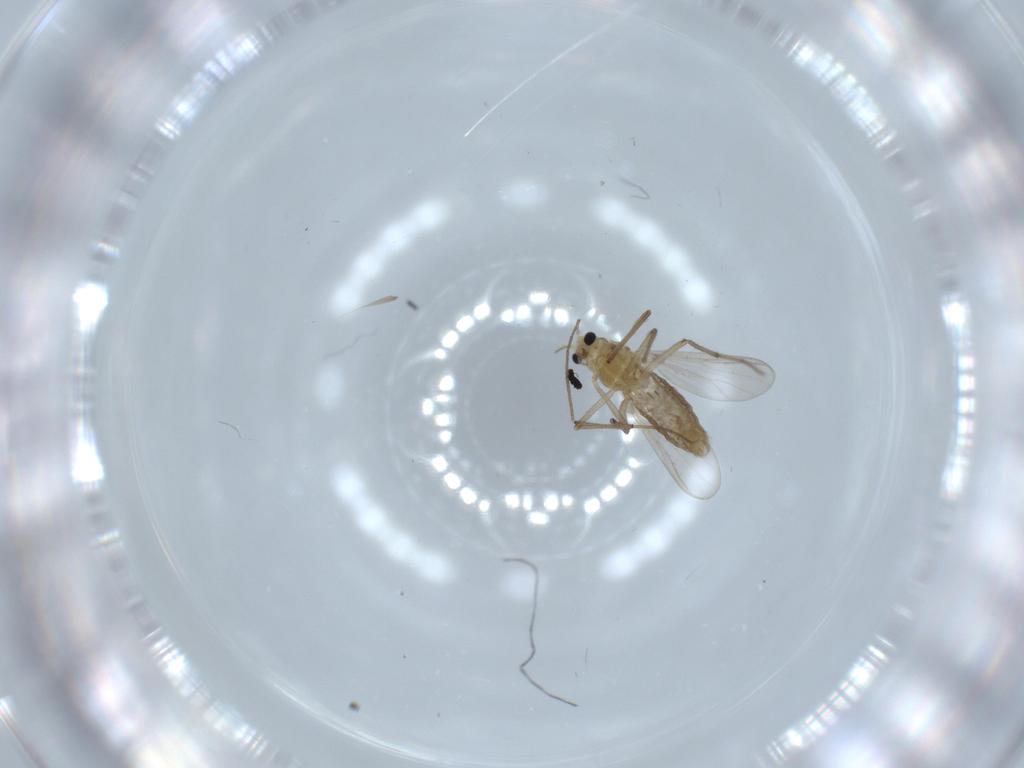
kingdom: Animalia
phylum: Arthropoda
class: Insecta
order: Diptera
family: Chironomidae
